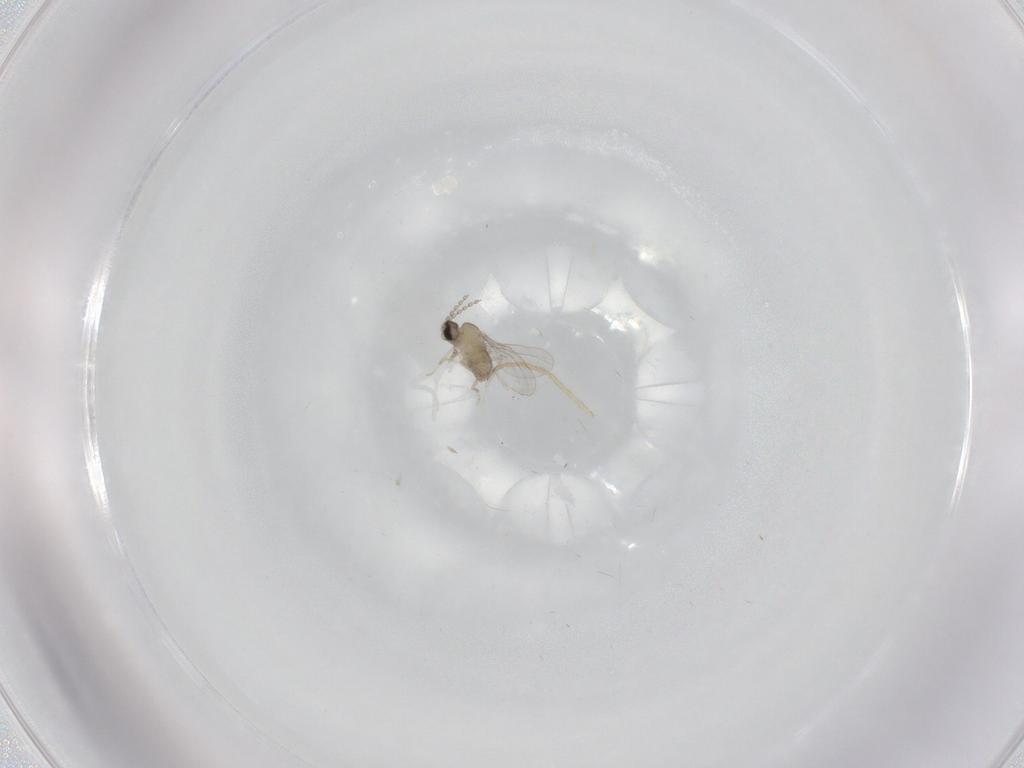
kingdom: Animalia
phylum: Arthropoda
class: Insecta
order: Diptera
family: Cecidomyiidae
